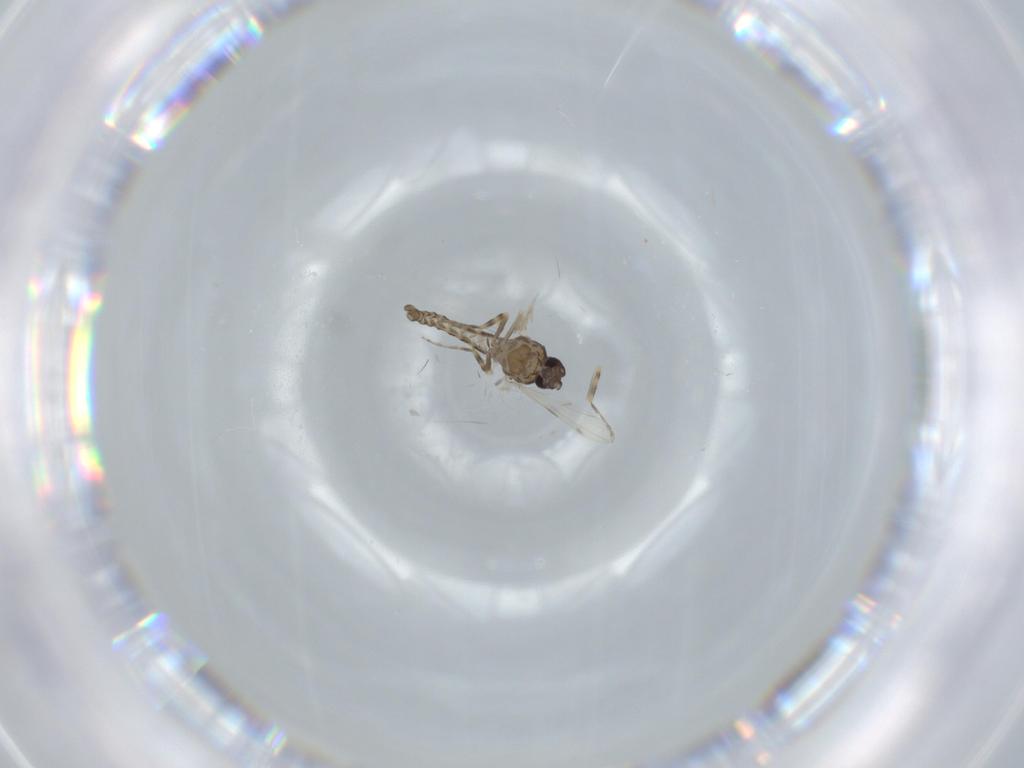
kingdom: Animalia
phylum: Arthropoda
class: Insecta
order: Diptera
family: Ceratopogonidae
